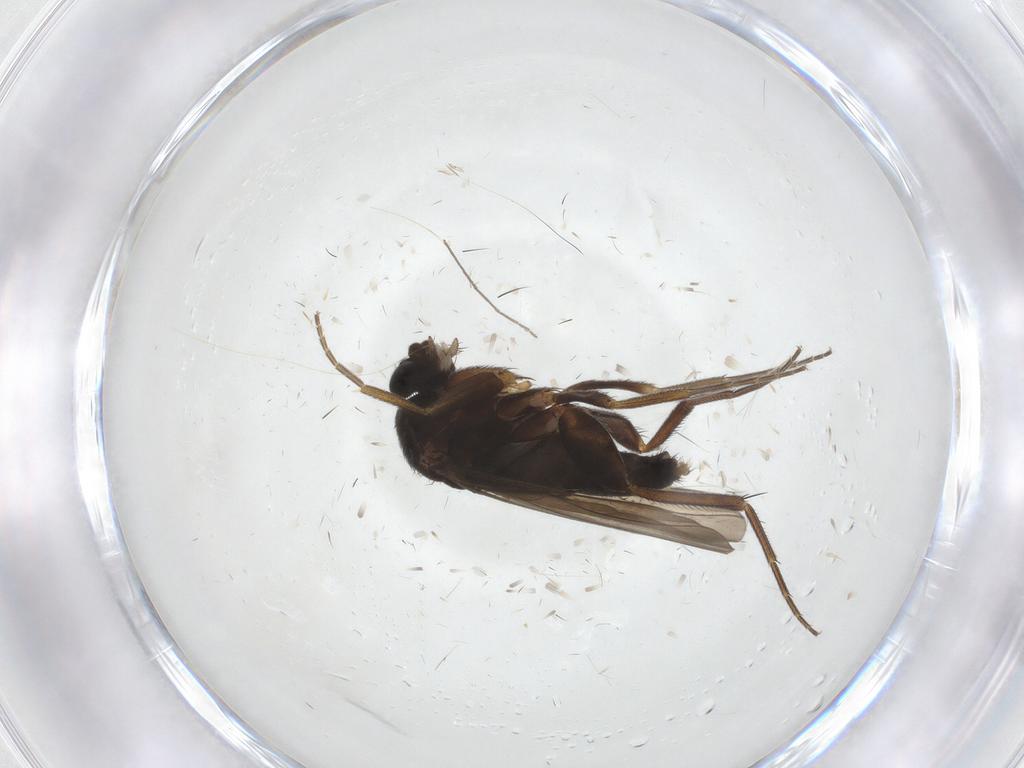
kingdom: Animalia
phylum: Arthropoda
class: Insecta
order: Diptera
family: Phoridae
